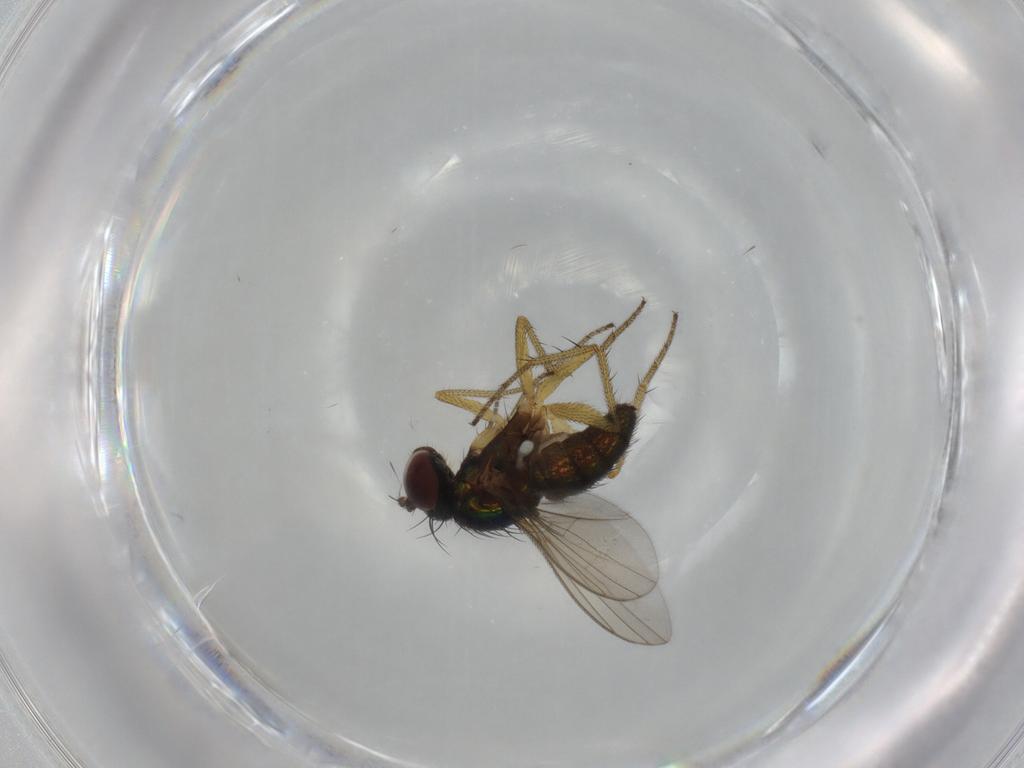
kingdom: Animalia
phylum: Arthropoda
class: Insecta
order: Diptera
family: Dolichopodidae
